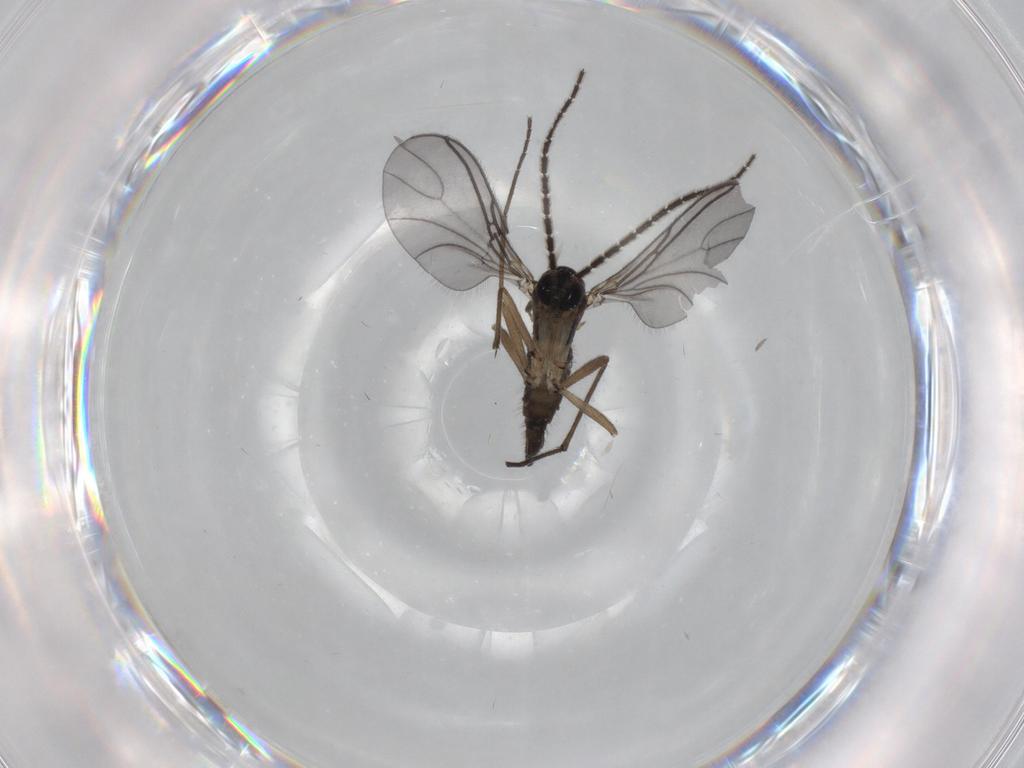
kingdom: Animalia
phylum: Arthropoda
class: Insecta
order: Diptera
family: Sciaridae
